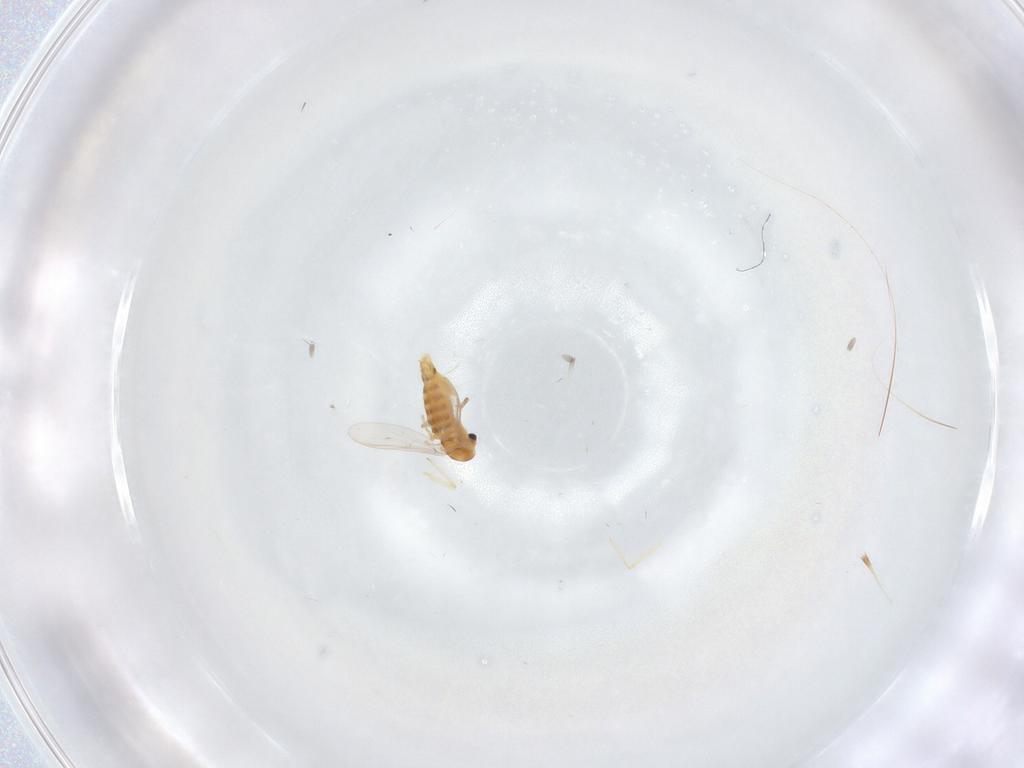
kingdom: Animalia
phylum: Arthropoda
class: Insecta
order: Diptera
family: Chironomidae
